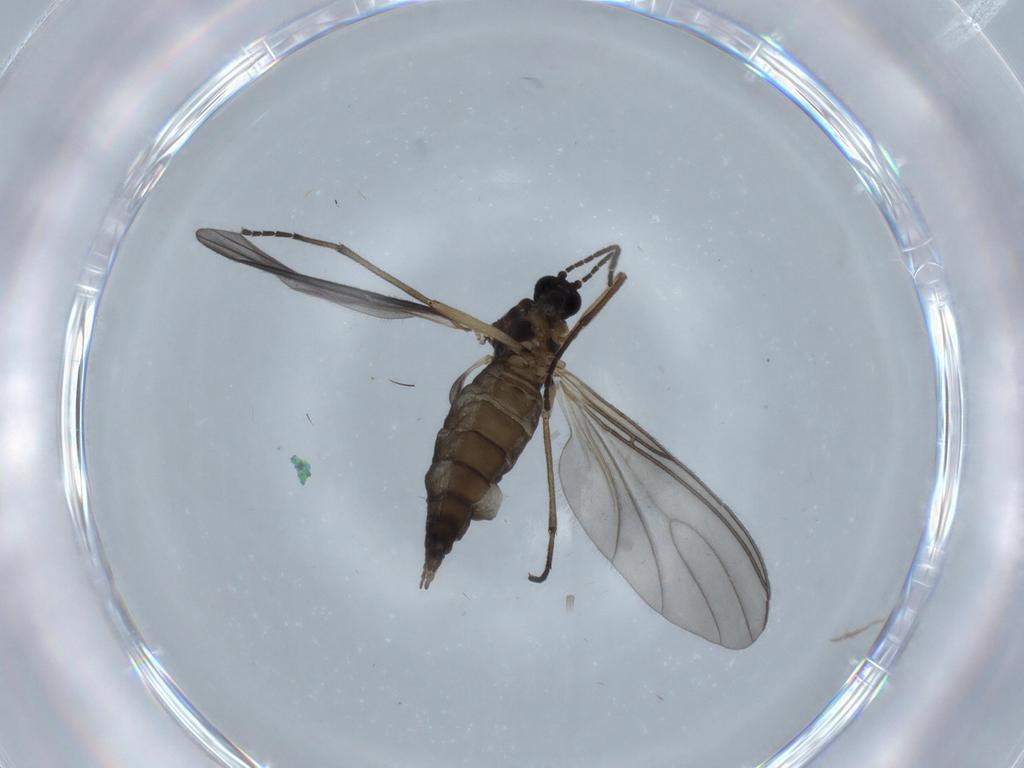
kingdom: Animalia
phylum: Arthropoda
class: Insecta
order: Diptera
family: Sciaridae
